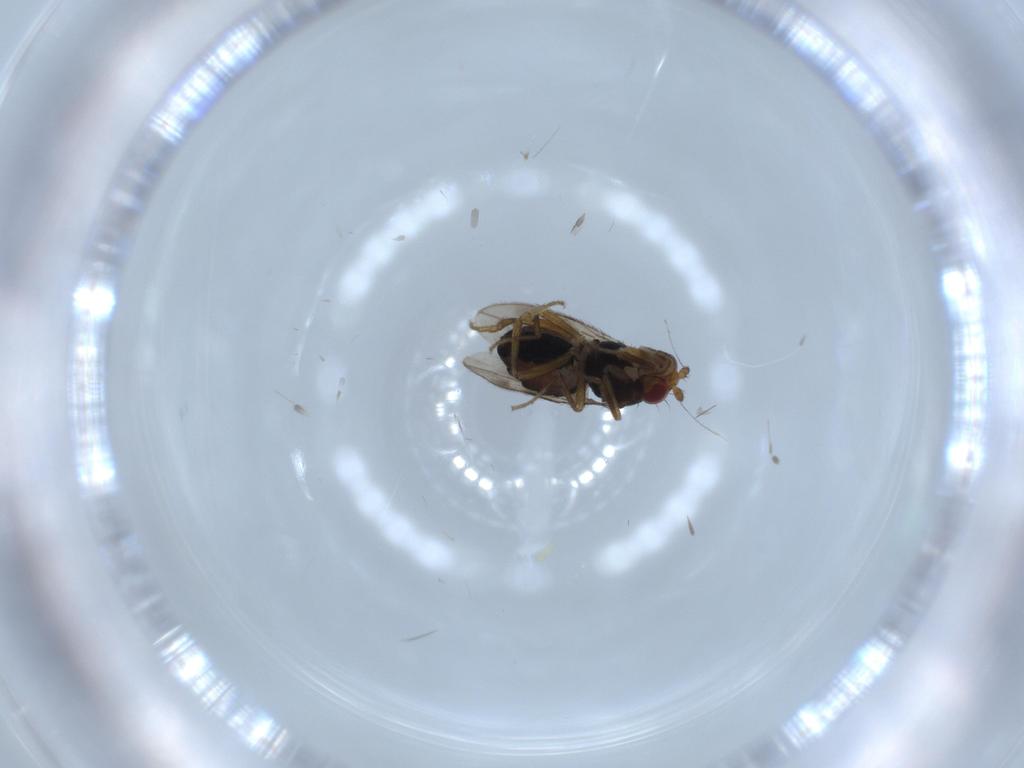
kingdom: Animalia
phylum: Arthropoda
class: Insecta
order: Diptera
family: Sphaeroceridae
